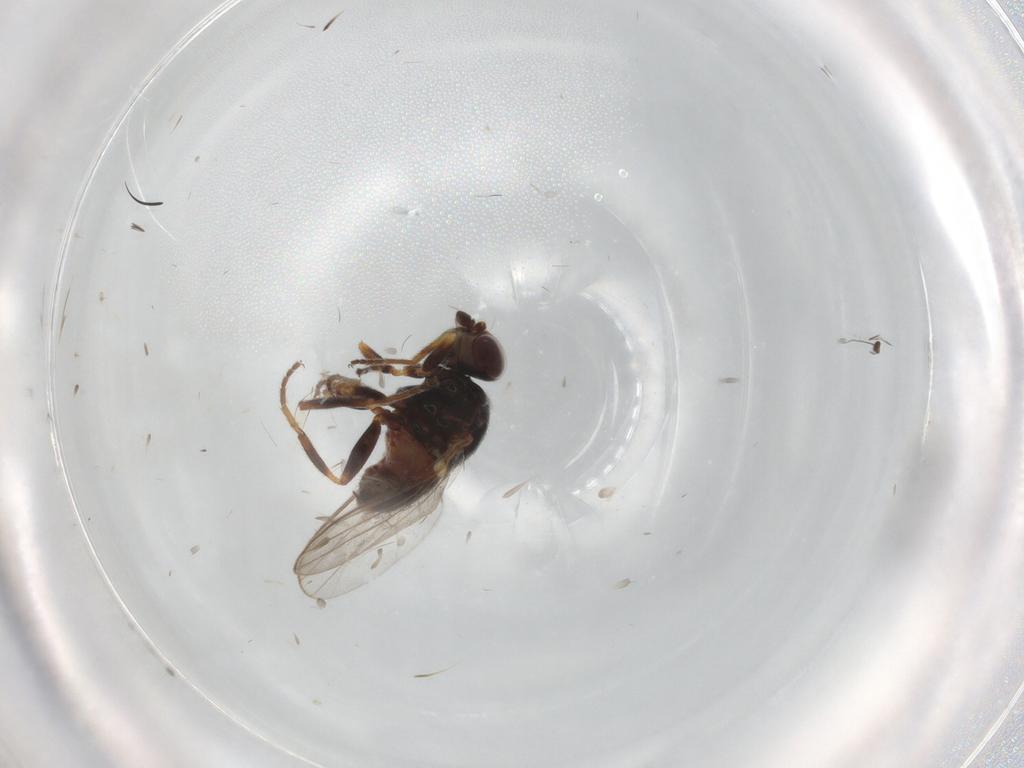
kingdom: Animalia
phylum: Arthropoda
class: Insecta
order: Diptera
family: Chloropidae
